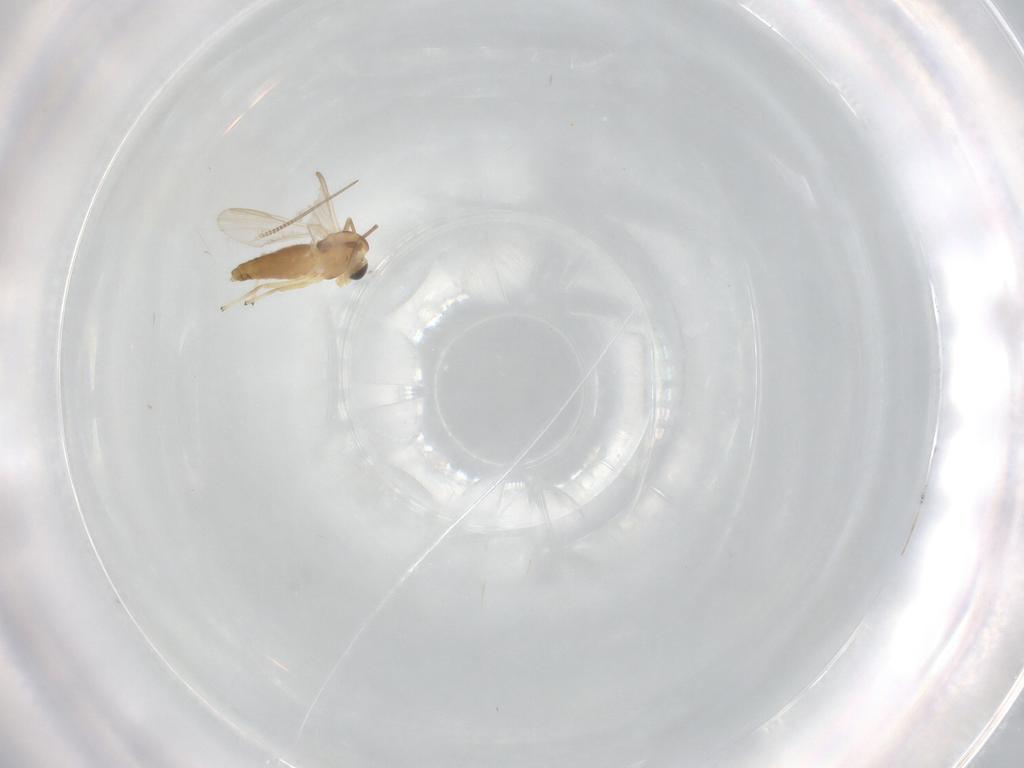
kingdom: Animalia
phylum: Arthropoda
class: Insecta
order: Diptera
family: Chironomidae
